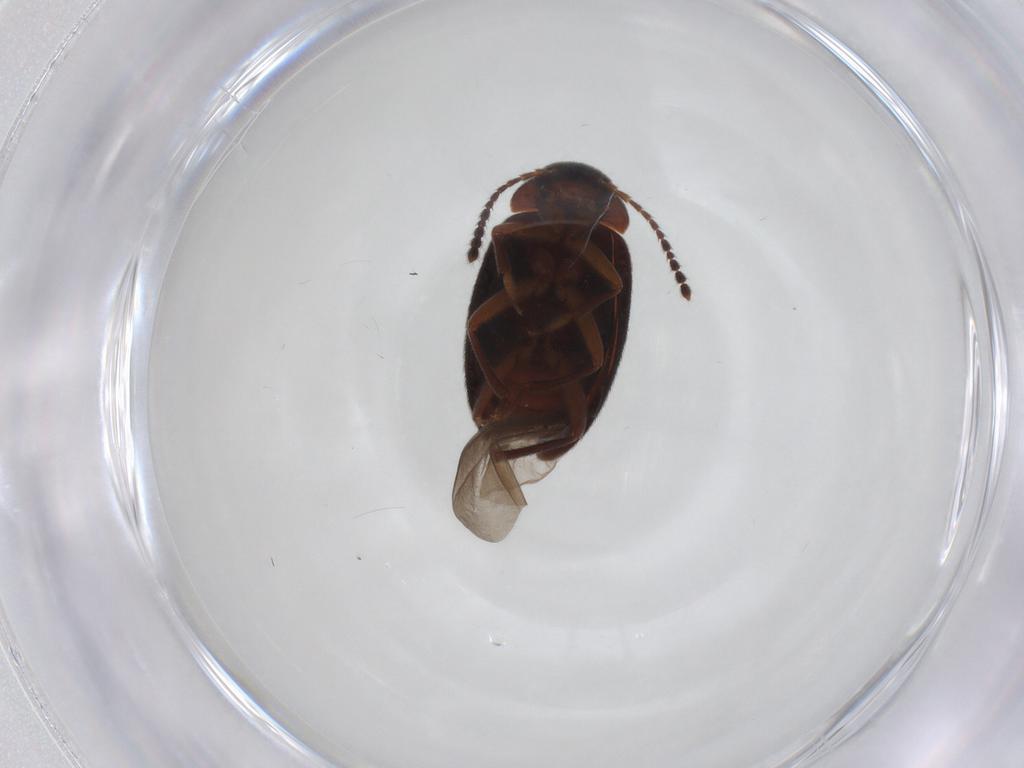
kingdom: Animalia
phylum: Arthropoda
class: Insecta
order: Coleoptera
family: Leiodidae
